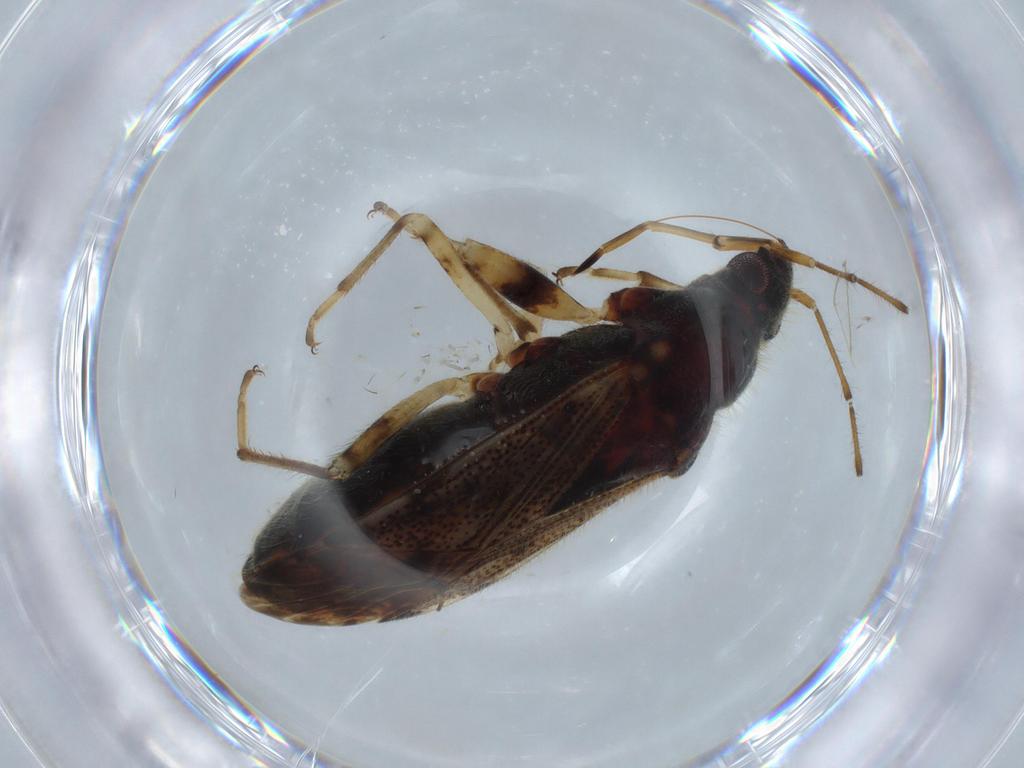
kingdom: Animalia
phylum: Arthropoda
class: Insecta
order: Hemiptera
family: Rhyparochromidae
